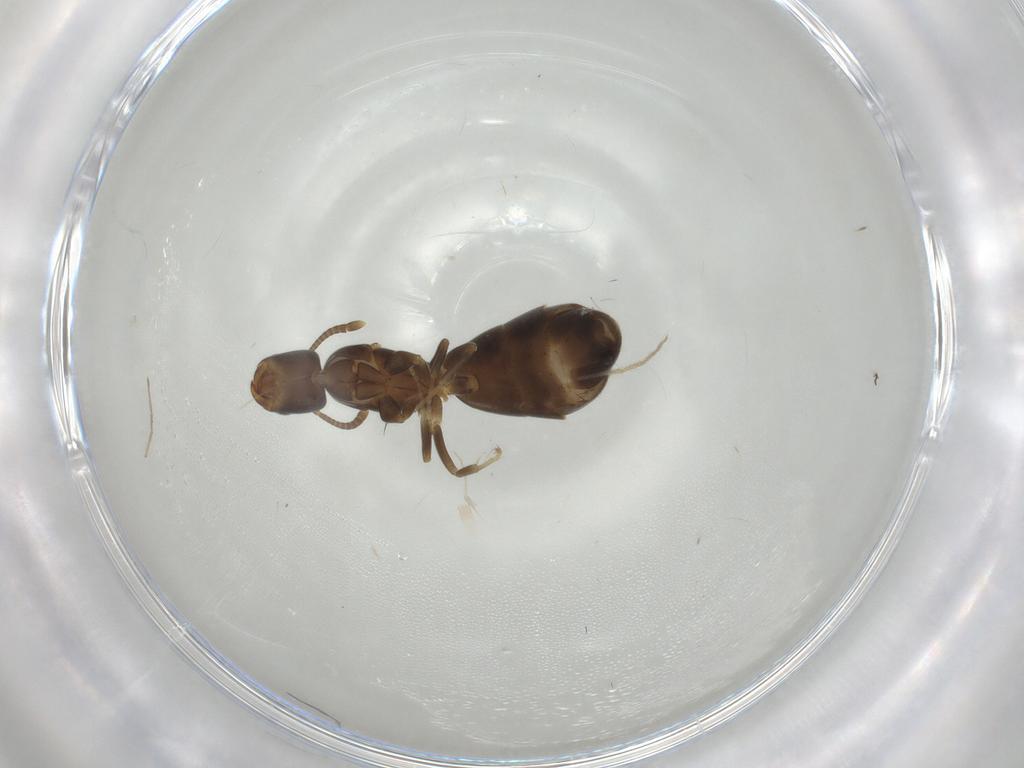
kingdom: Animalia
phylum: Arthropoda
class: Insecta
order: Hymenoptera
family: Formicidae
